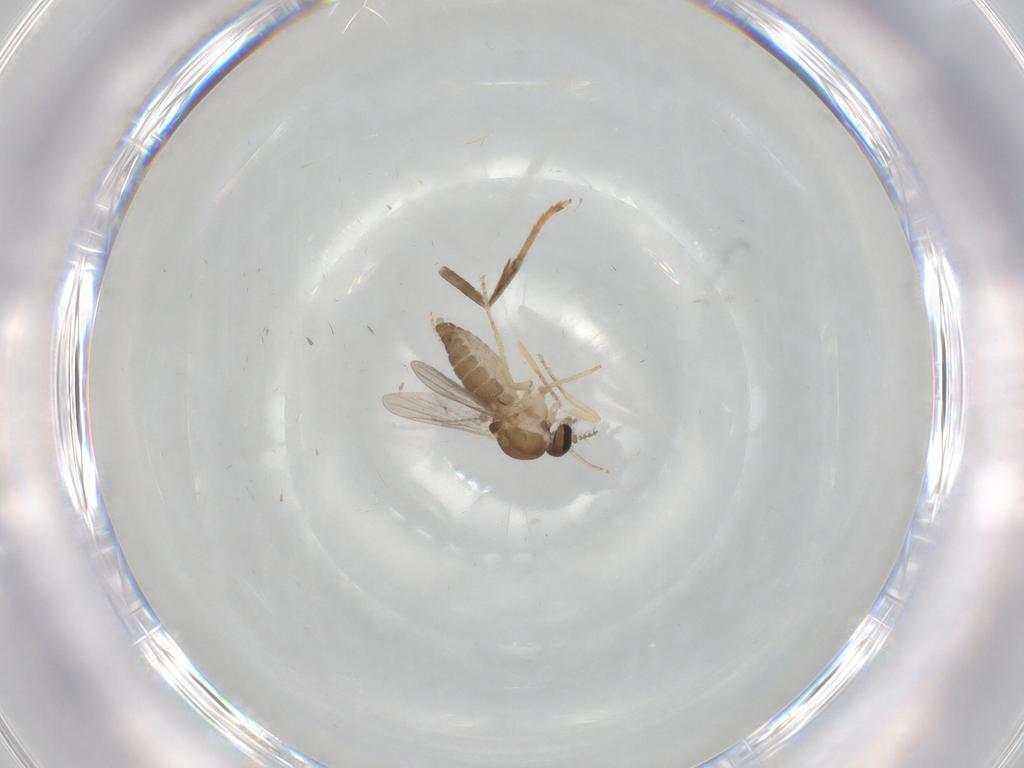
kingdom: Animalia
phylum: Arthropoda
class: Insecta
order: Diptera
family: Ceratopogonidae
